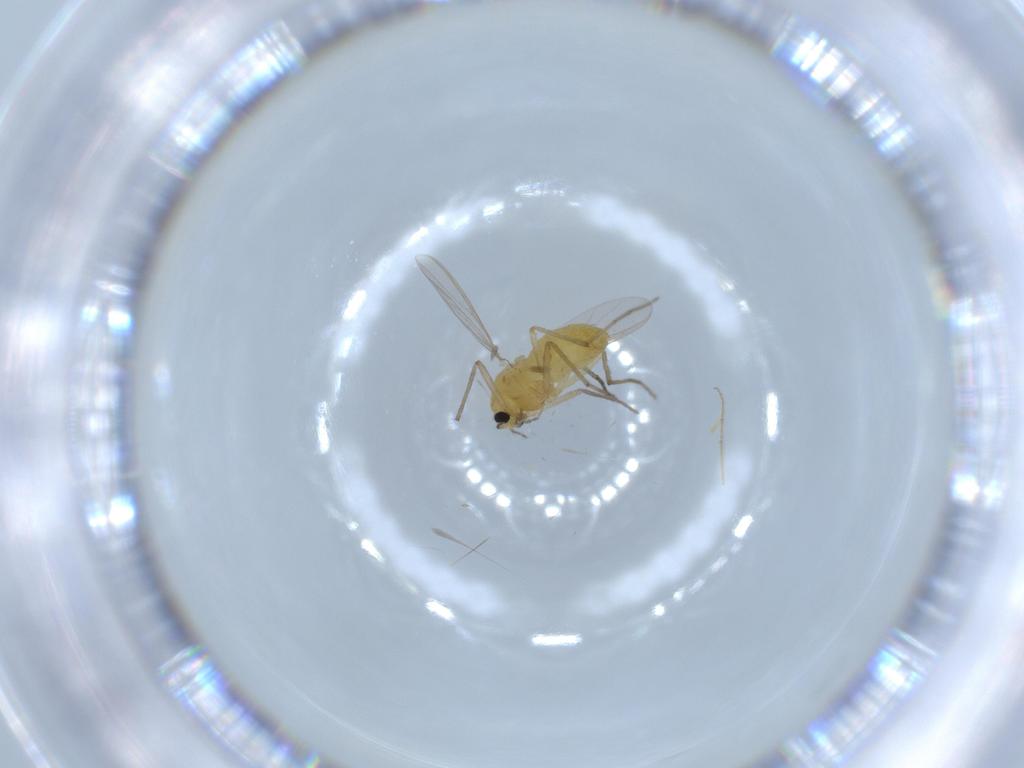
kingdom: Animalia
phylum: Arthropoda
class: Insecta
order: Diptera
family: Chironomidae
